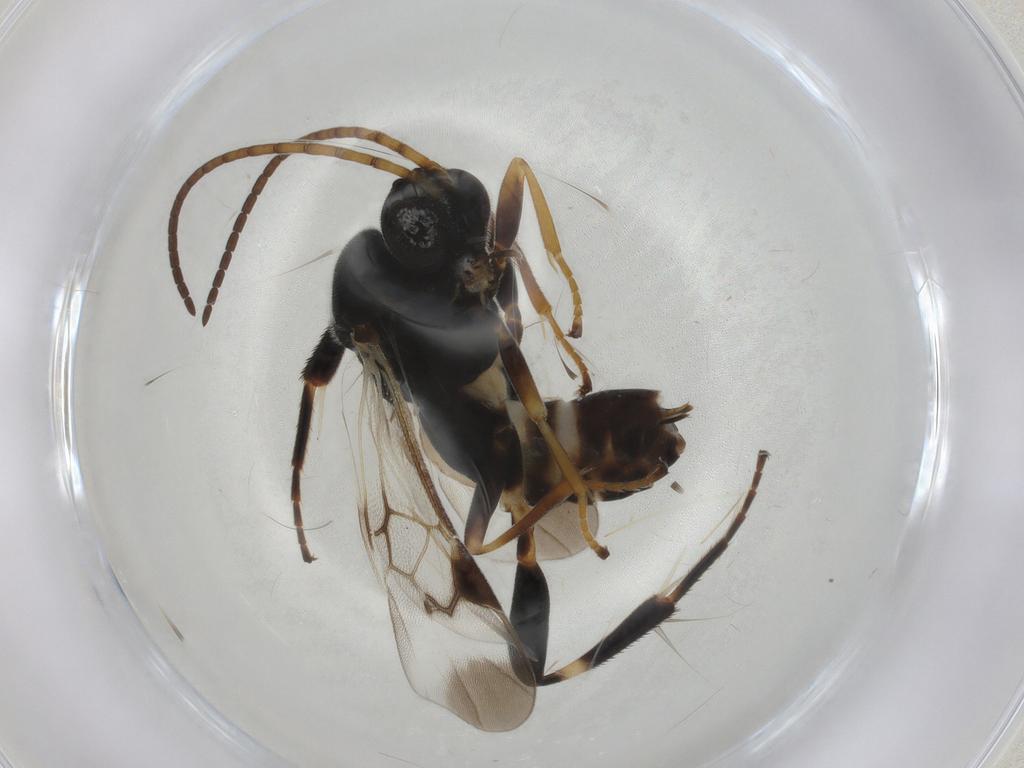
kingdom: Animalia
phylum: Arthropoda
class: Insecta
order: Hymenoptera
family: Braconidae
